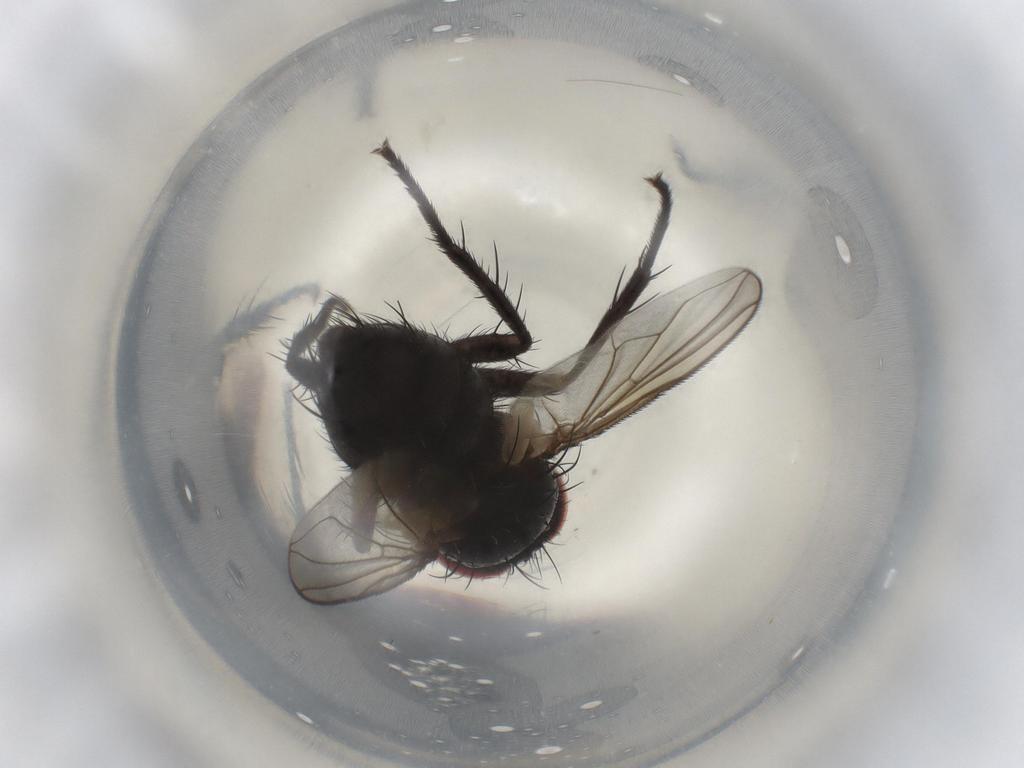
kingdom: Animalia
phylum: Arthropoda
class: Insecta
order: Diptera
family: Tachinidae
